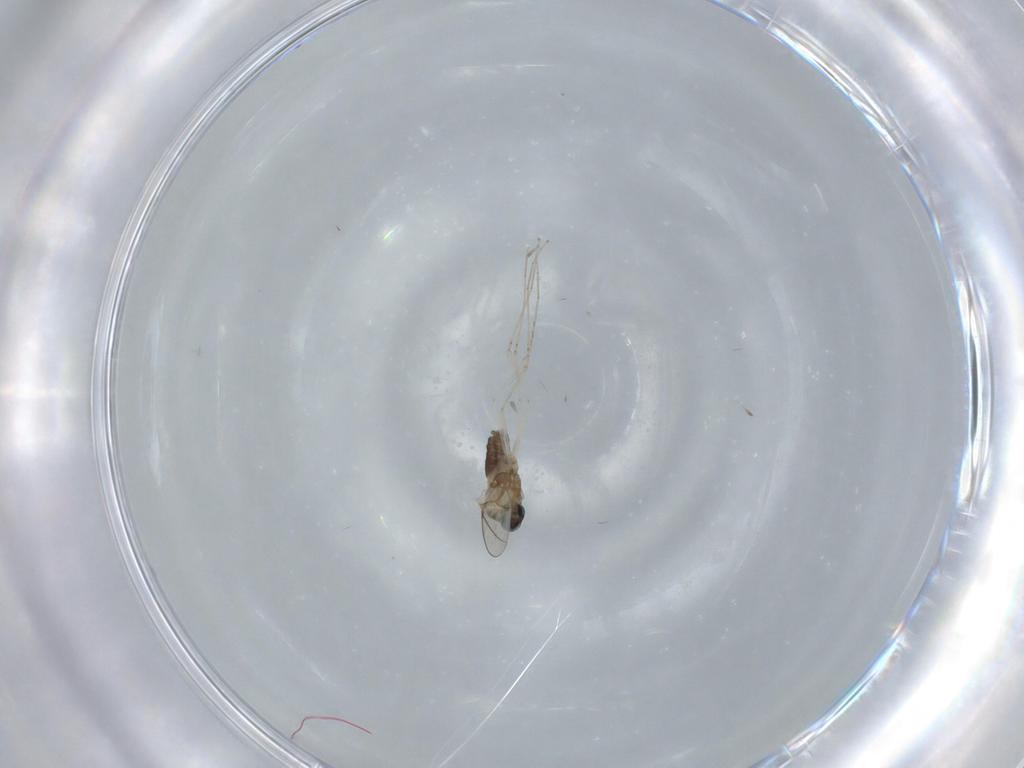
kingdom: Animalia
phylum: Arthropoda
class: Insecta
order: Diptera
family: Cecidomyiidae
